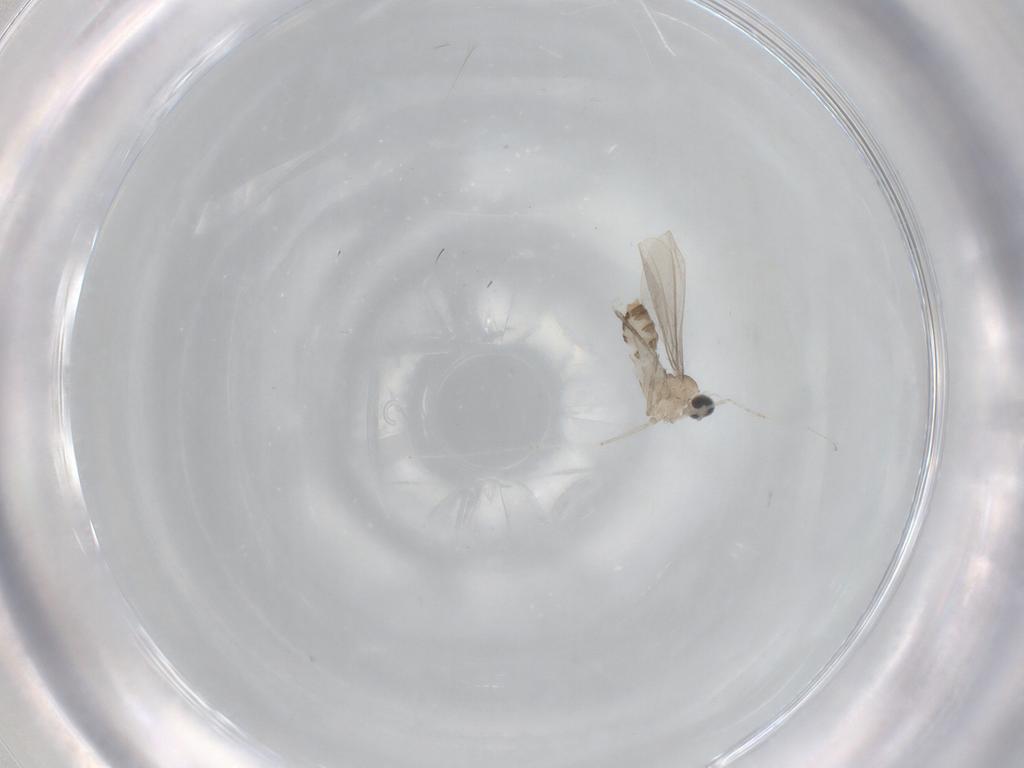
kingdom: Animalia
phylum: Arthropoda
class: Insecta
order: Diptera
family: Cecidomyiidae
